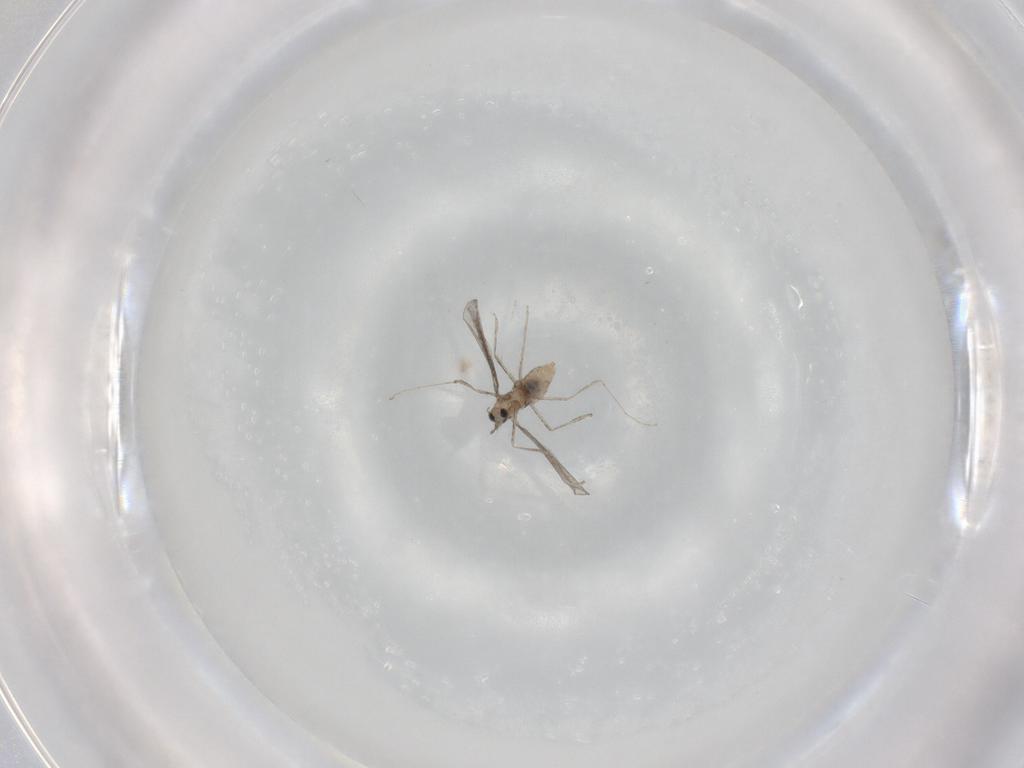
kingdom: Animalia
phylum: Arthropoda
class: Insecta
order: Diptera
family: Cecidomyiidae
